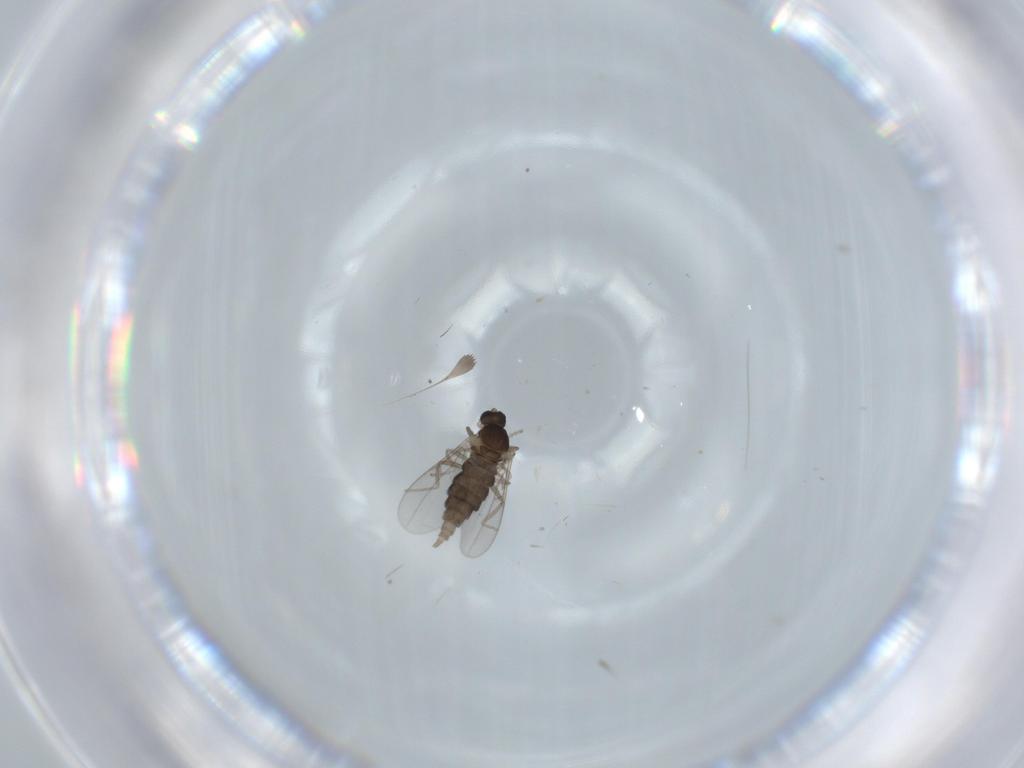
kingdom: Animalia
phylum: Arthropoda
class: Insecta
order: Diptera
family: Cecidomyiidae
